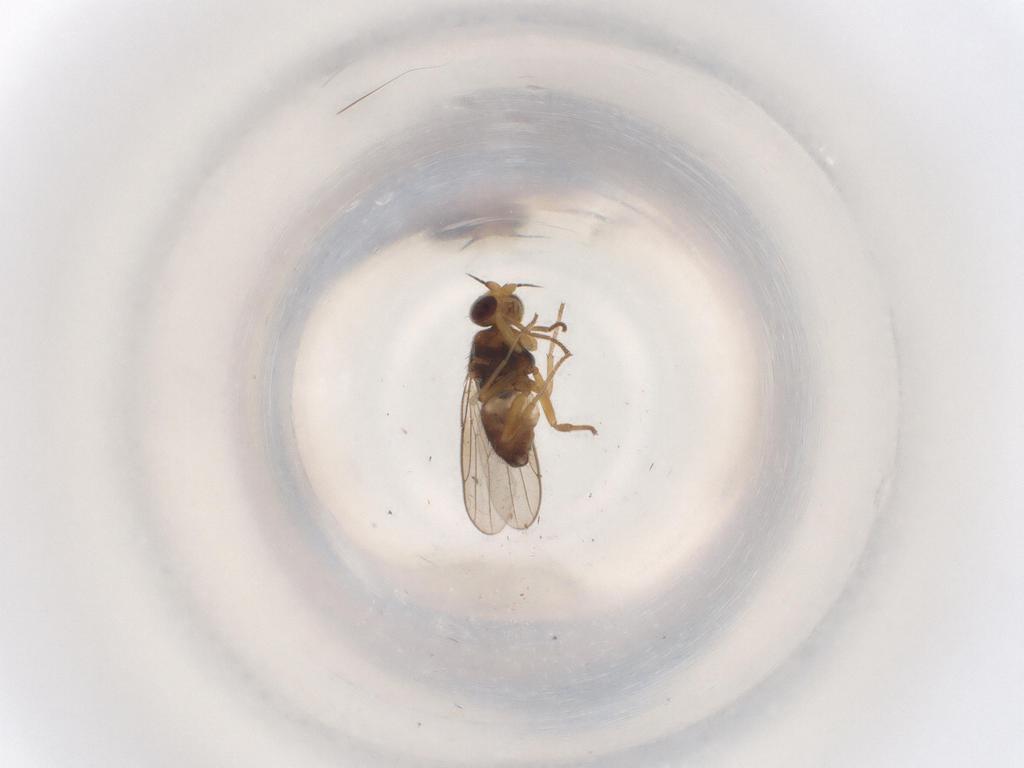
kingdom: Animalia
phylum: Arthropoda
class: Insecta
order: Diptera
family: Chloropidae
